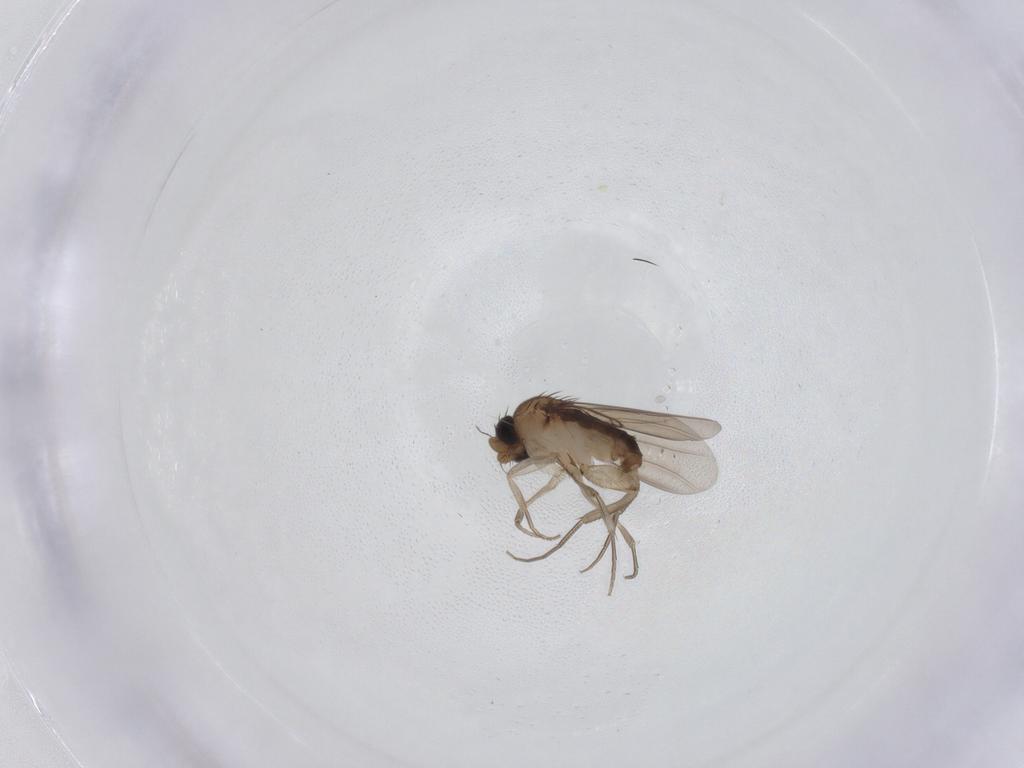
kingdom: Animalia
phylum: Arthropoda
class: Insecta
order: Diptera
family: Phoridae
